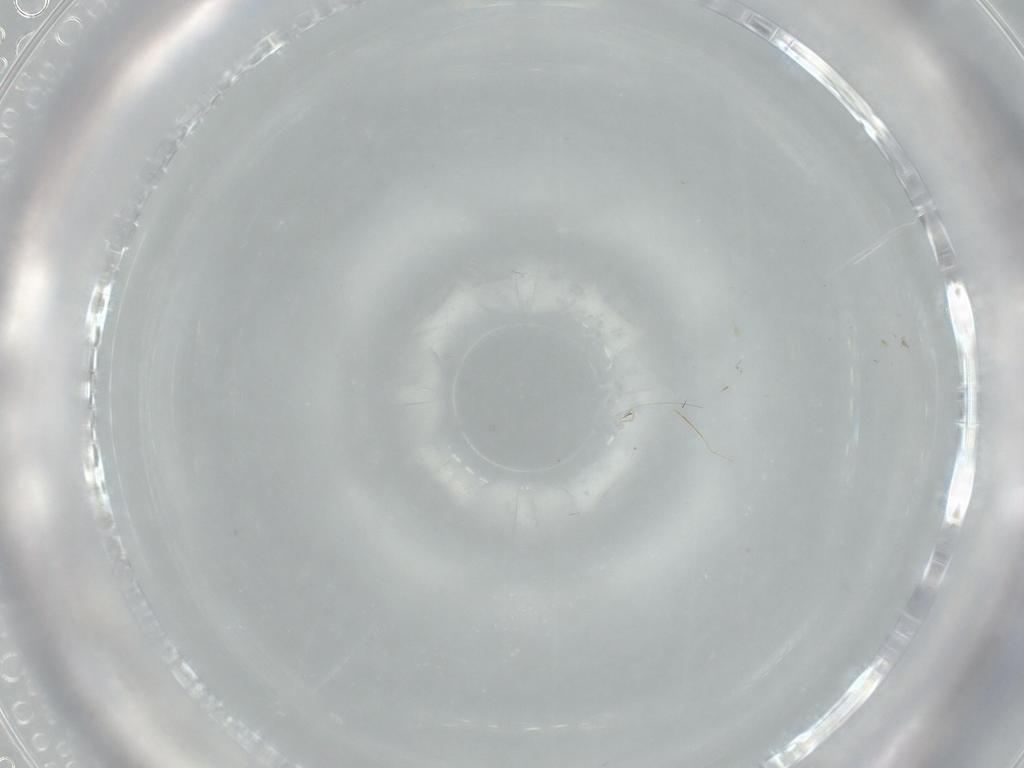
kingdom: Animalia
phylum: Arthropoda
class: Insecta
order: Diptera
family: Cecidomyiidae
